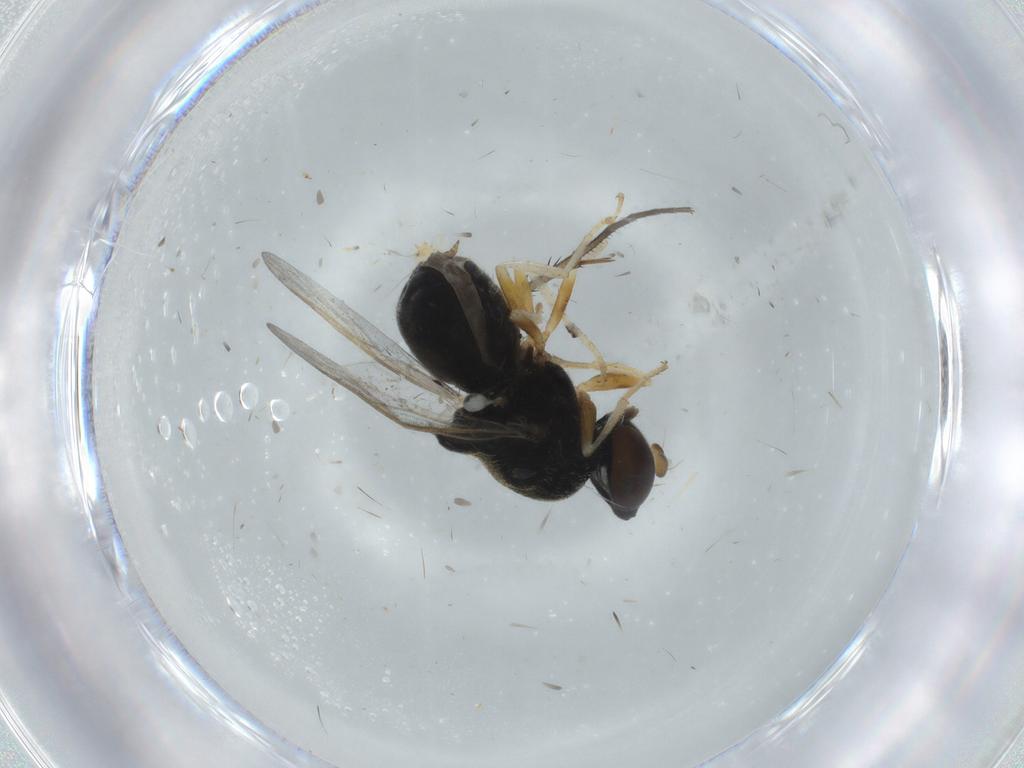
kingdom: Animalia
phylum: Arthropoda
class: Insecta
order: Diptera
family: Stratiomyidae
